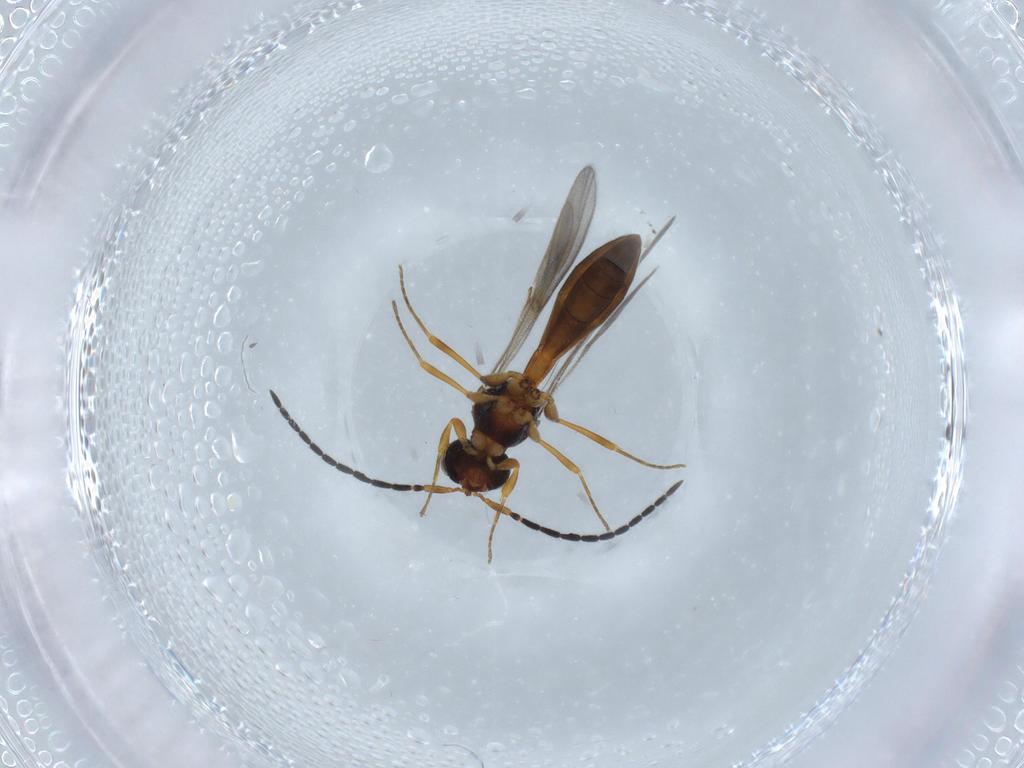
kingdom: Animalia
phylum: Arthropoda
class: Insecta
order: Hymenoptera
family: Scelionidae
